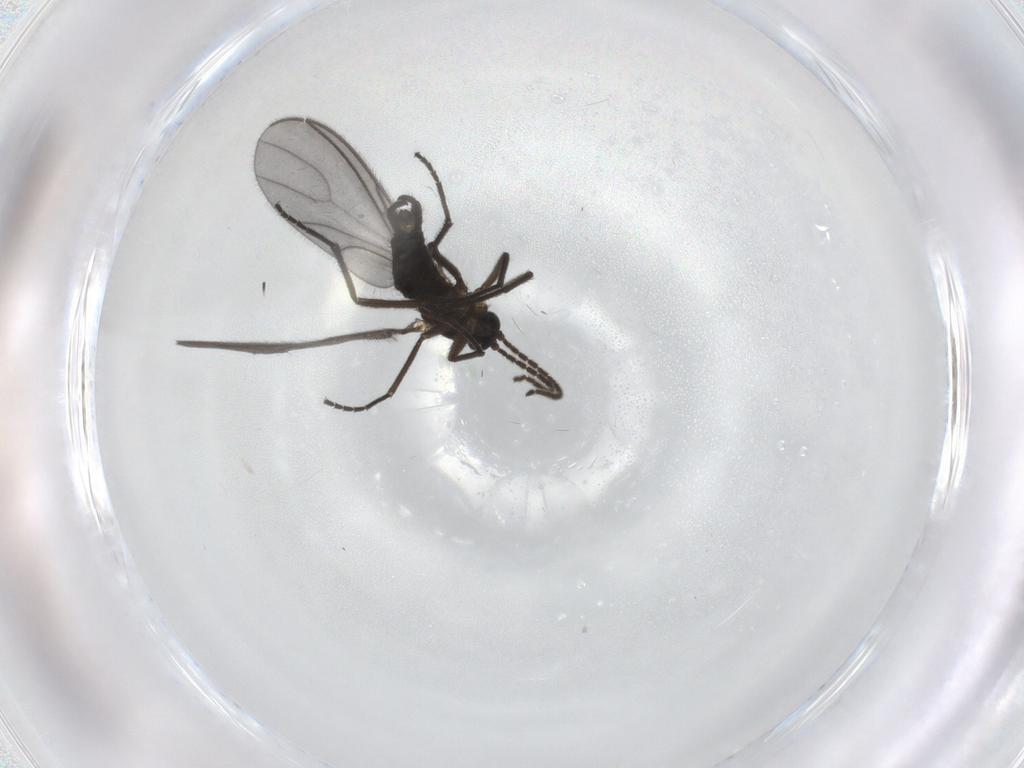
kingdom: Animalia
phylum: Arthropoda
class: Insecta
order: Diptera
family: Sciaridae
